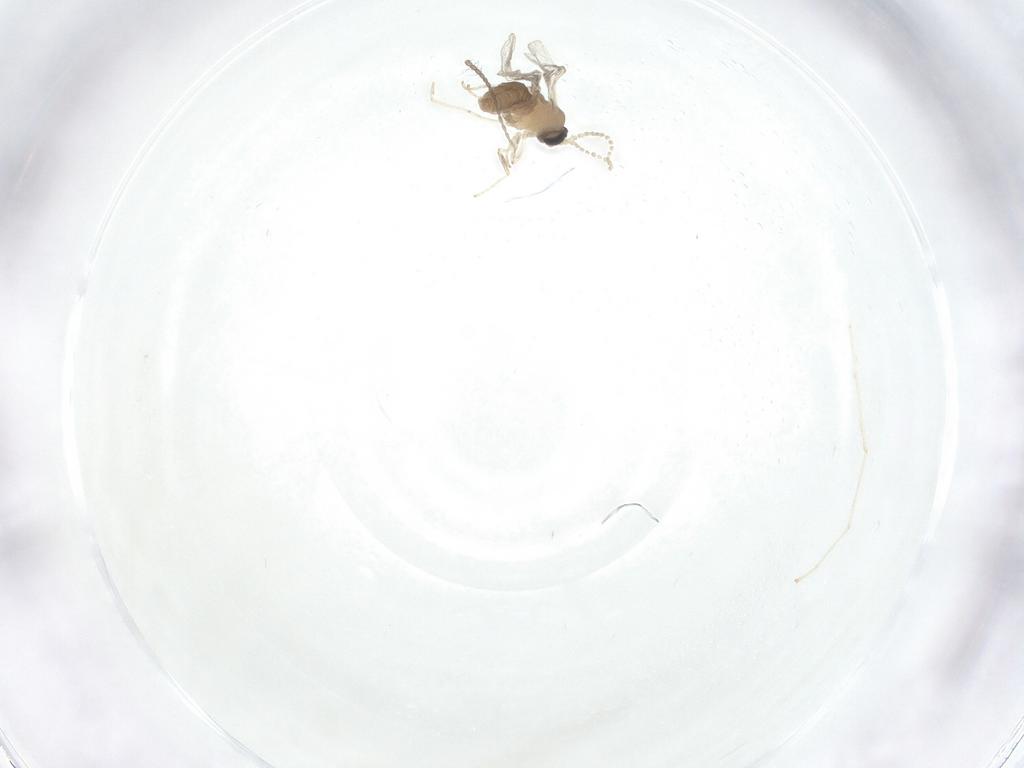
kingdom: Animalia
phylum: Arthropoda
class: Insecta
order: Diptera
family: Cecidomyiidae
